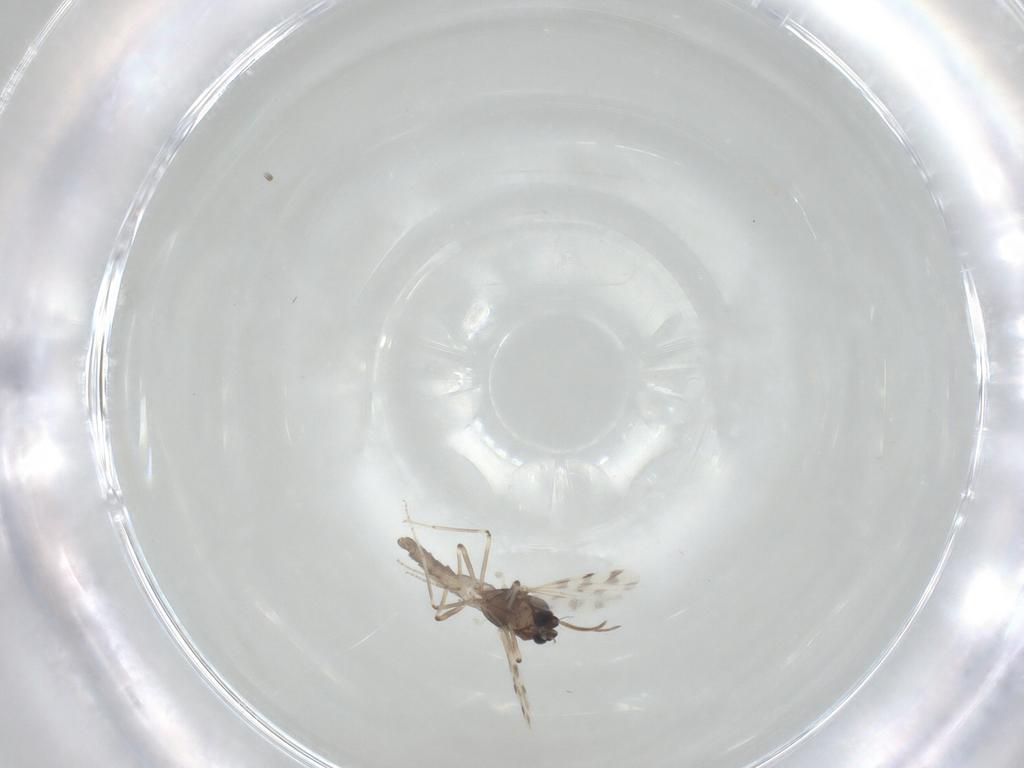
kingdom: Animalia
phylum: Arthropoda
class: Insecta
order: Diptera
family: Ceratopogonidae
